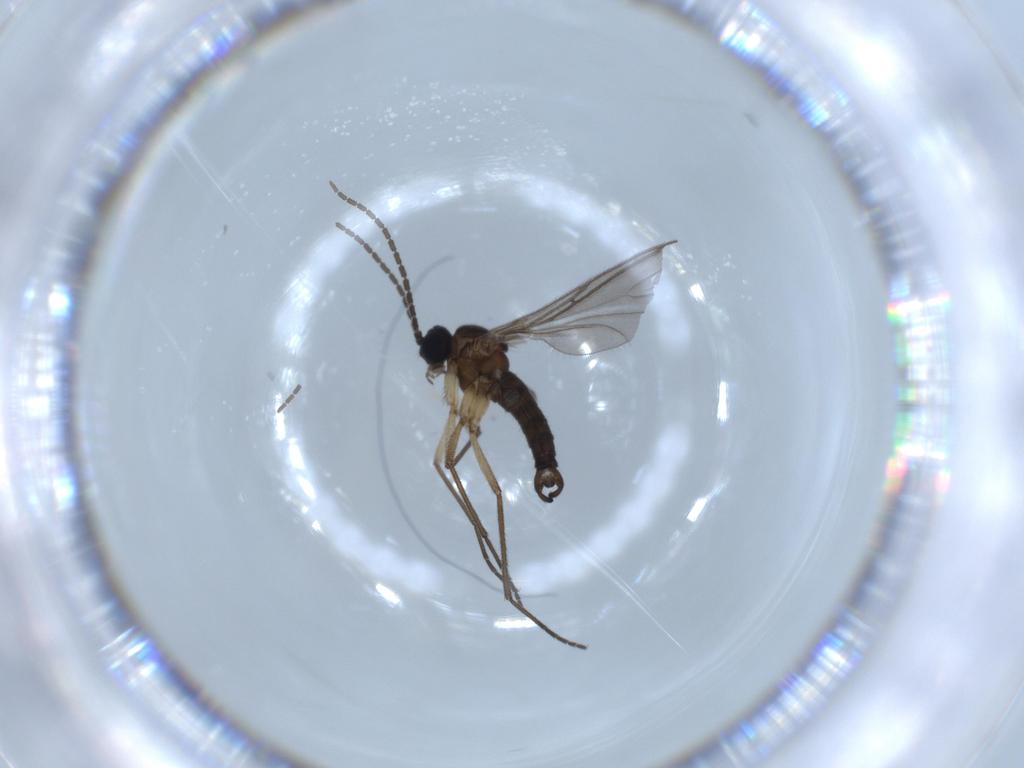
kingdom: Animalia
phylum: Arthropoda
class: Insecta
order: Diptera
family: Sciaridae
